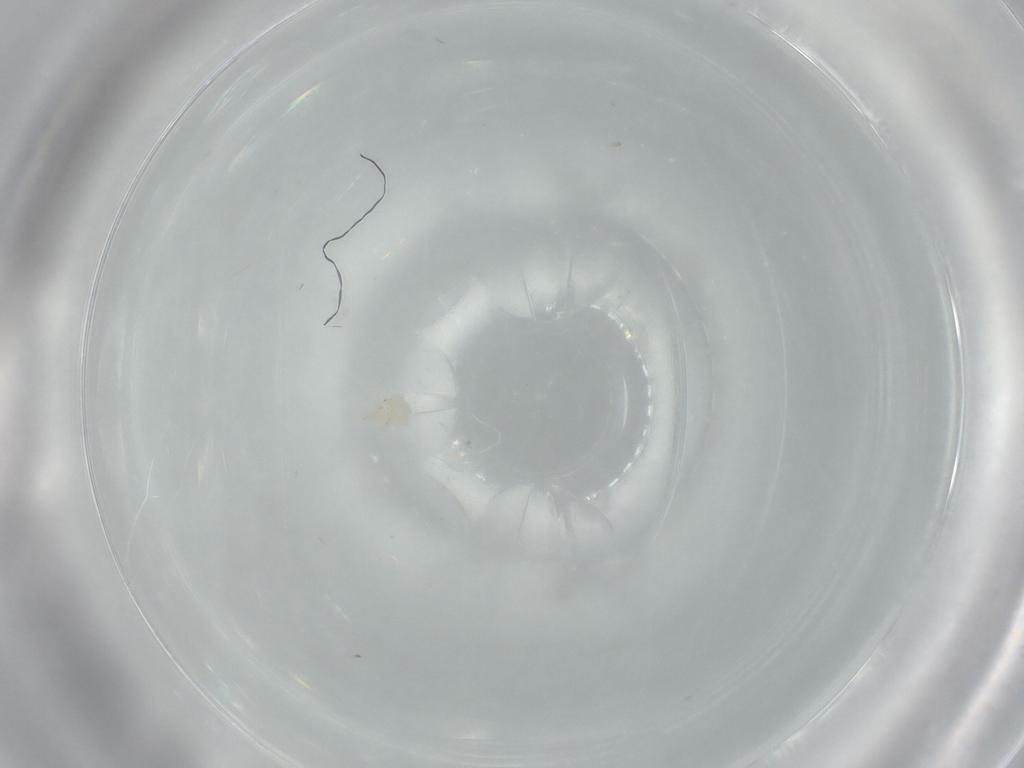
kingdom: Animalia
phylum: Arthropoda
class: Arachnida
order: Trombidiformes
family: Anystidae
